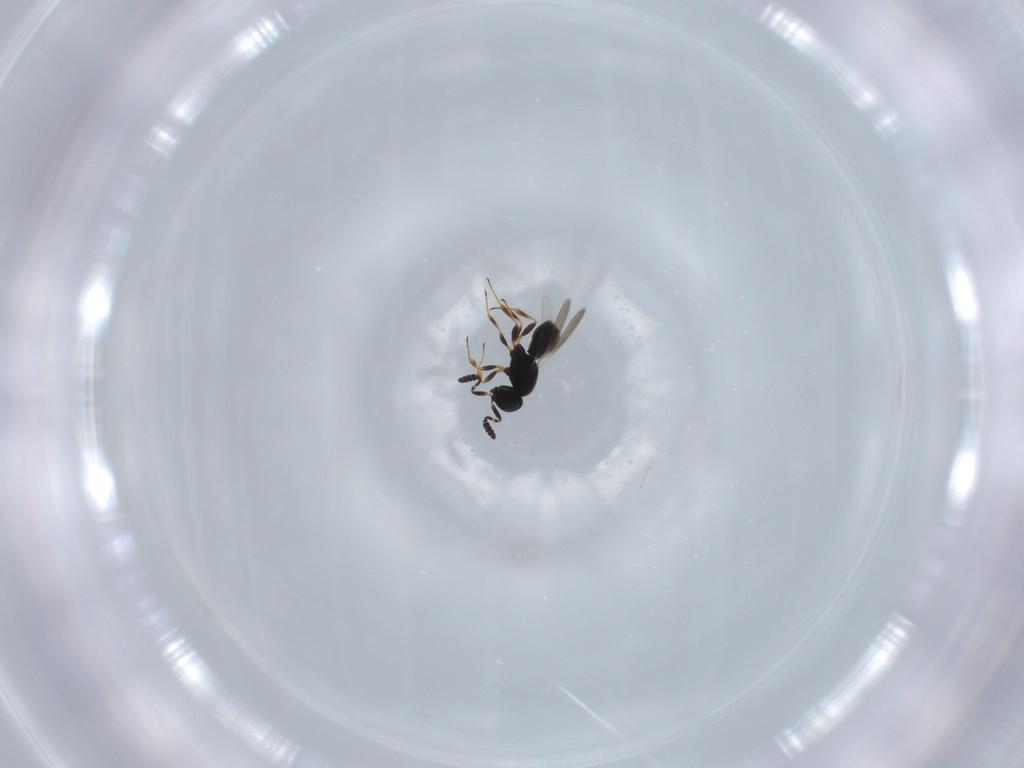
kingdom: Animalia
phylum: Arthropoda
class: Insecta
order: Hymenoptera
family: Scelionidae
